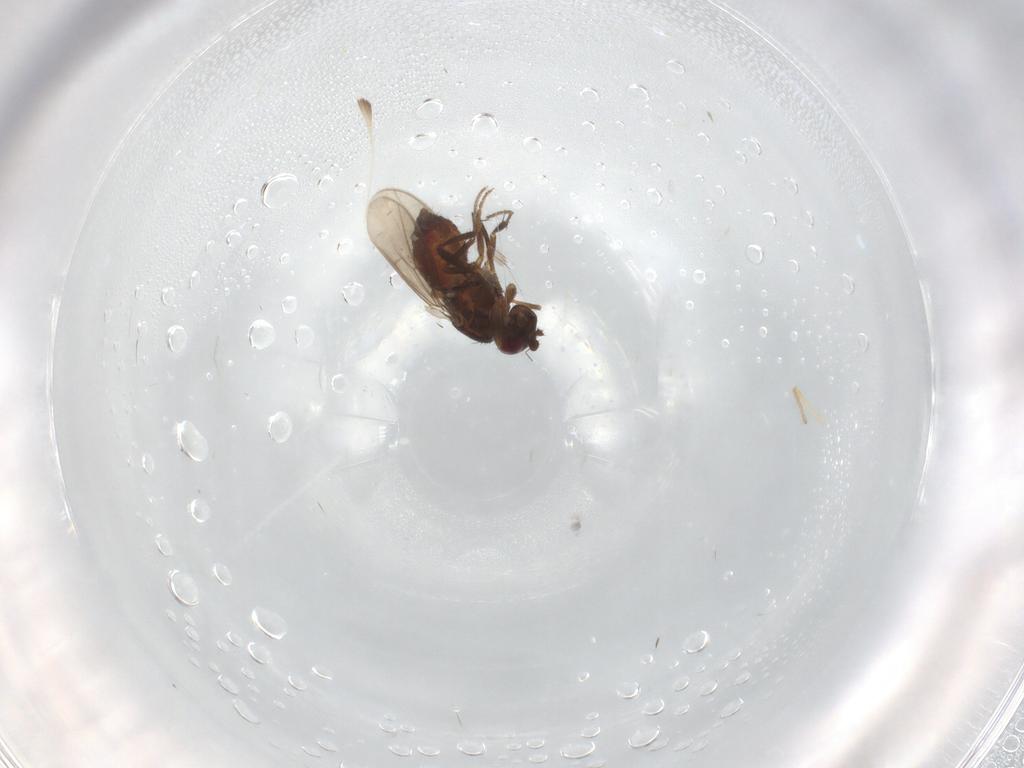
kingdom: Animalia
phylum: Arthropoda
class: Insecta
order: Diptera
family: Sphaeroceridae
